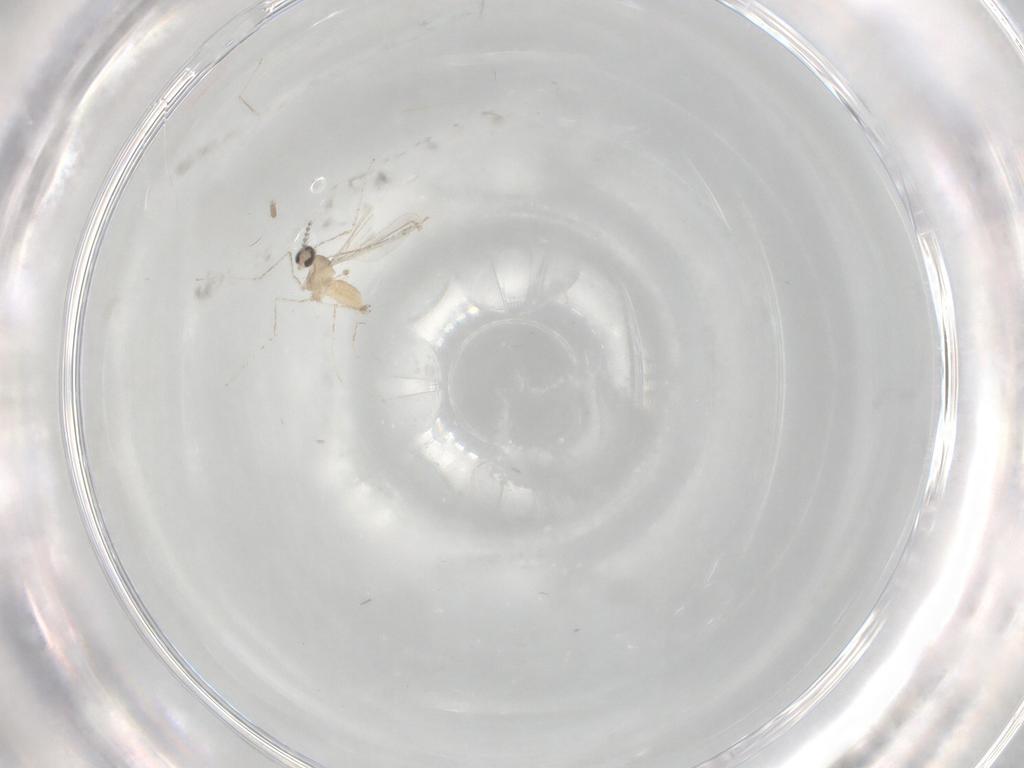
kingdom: Animalia
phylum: Arthropoda
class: Insecta
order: Diptera
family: Cecidomyiidae
